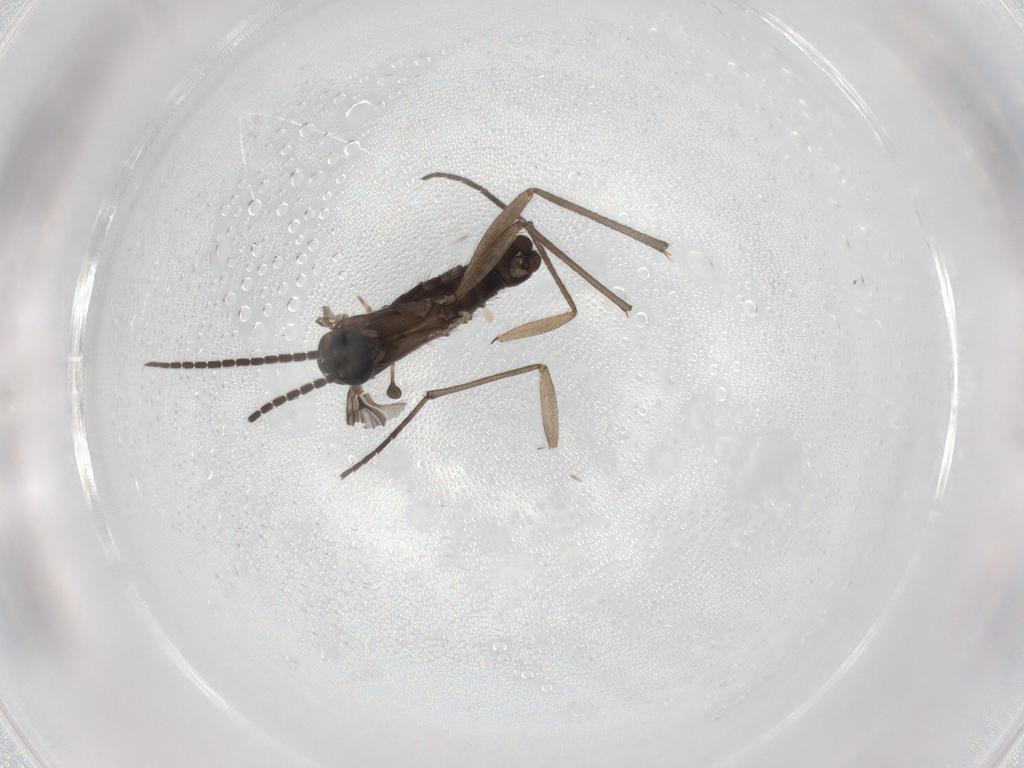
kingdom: Animalia
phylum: Arthropoda
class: Insecta
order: Diptera
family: Sciaridae
